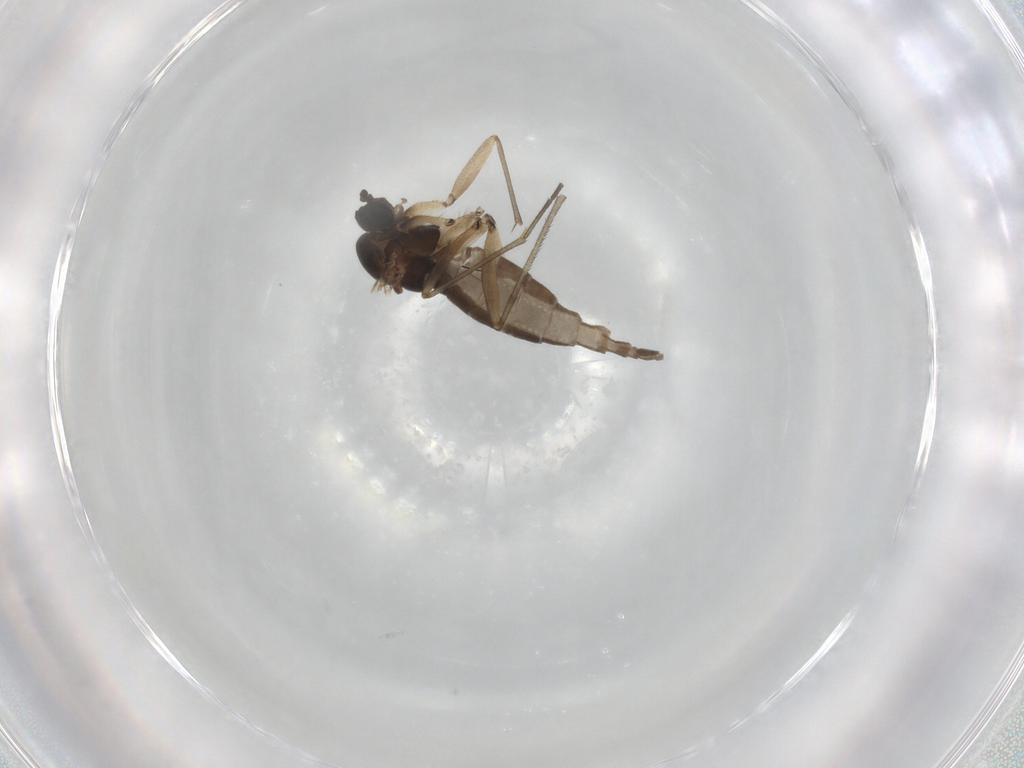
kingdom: Animalia
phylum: Arthropoda
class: Insecta
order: Diptera
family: Sciaridae
